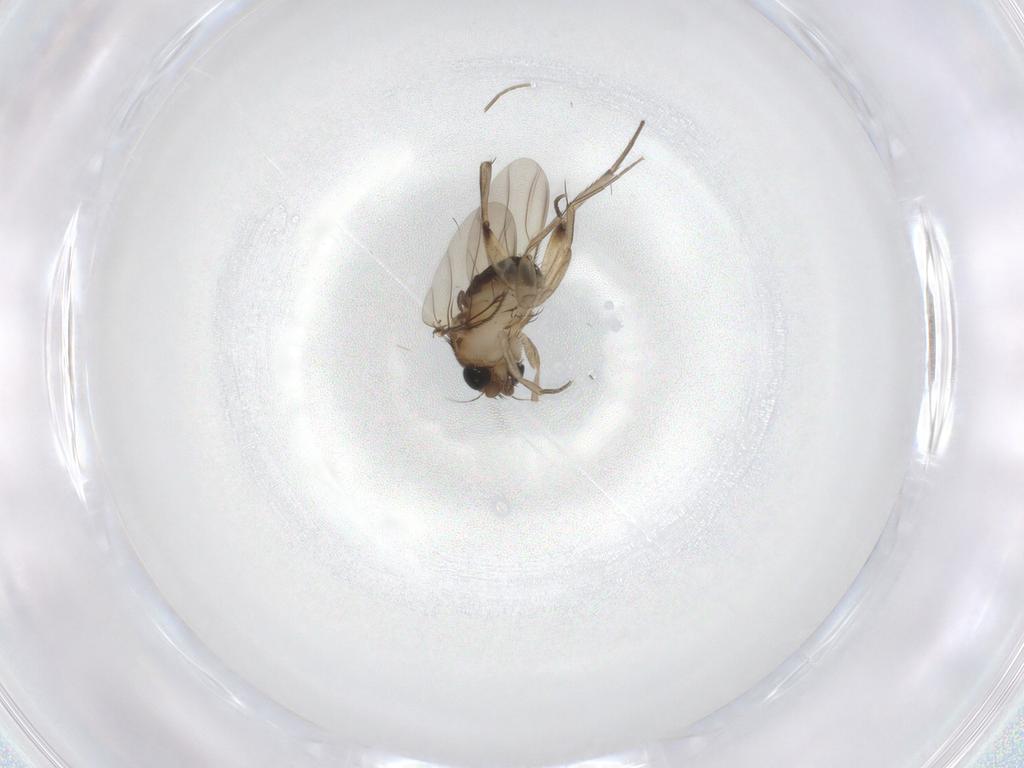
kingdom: Animalia
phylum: Arthropoda
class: Insecta
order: Diptera
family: Phoridae
